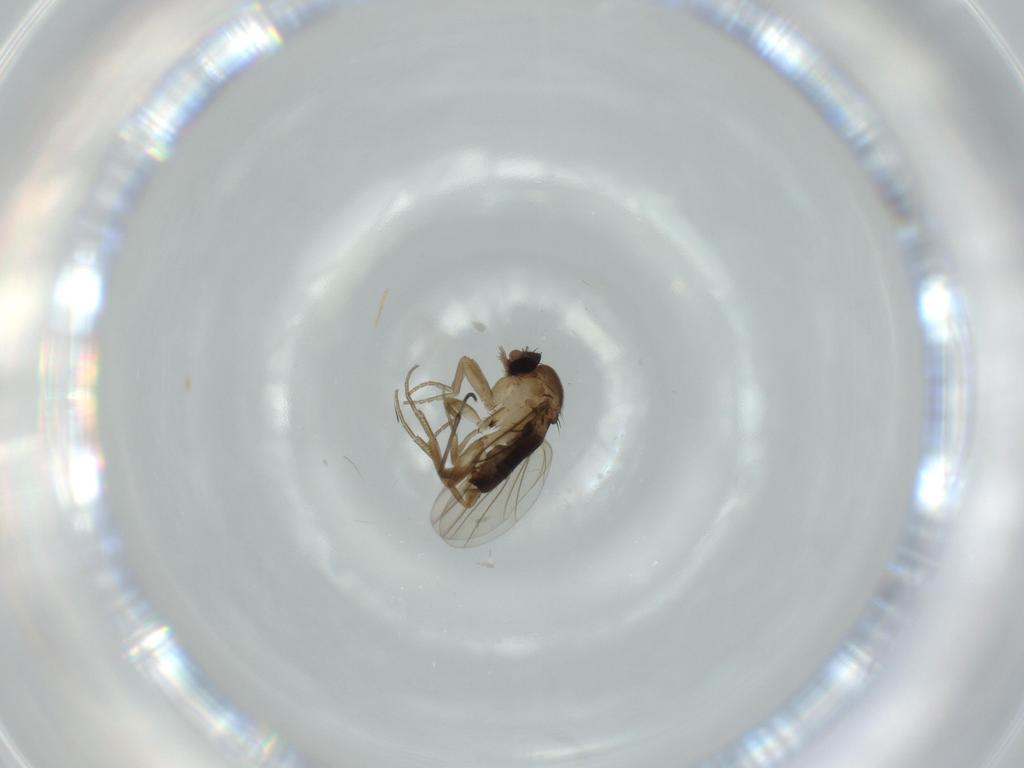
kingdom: Animalia
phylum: Arthropoda
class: Insecta
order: Diptera
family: Phoridae
